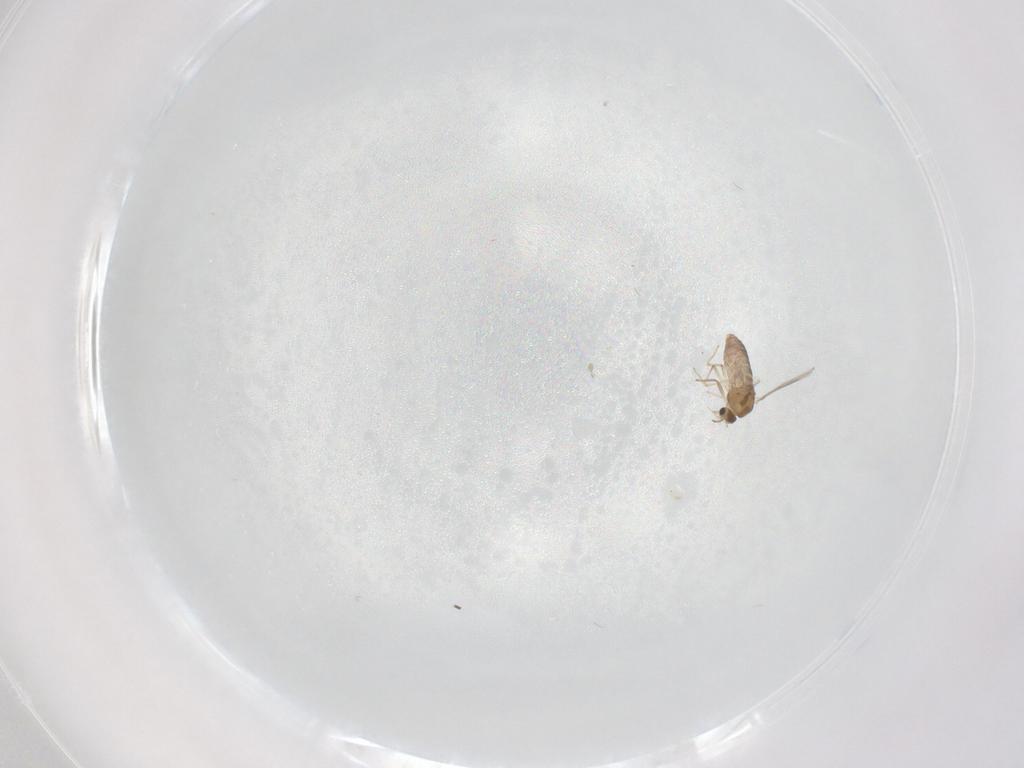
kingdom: Animalia
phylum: Arthropoda
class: Insecta
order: Diptera
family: Chironomidae
